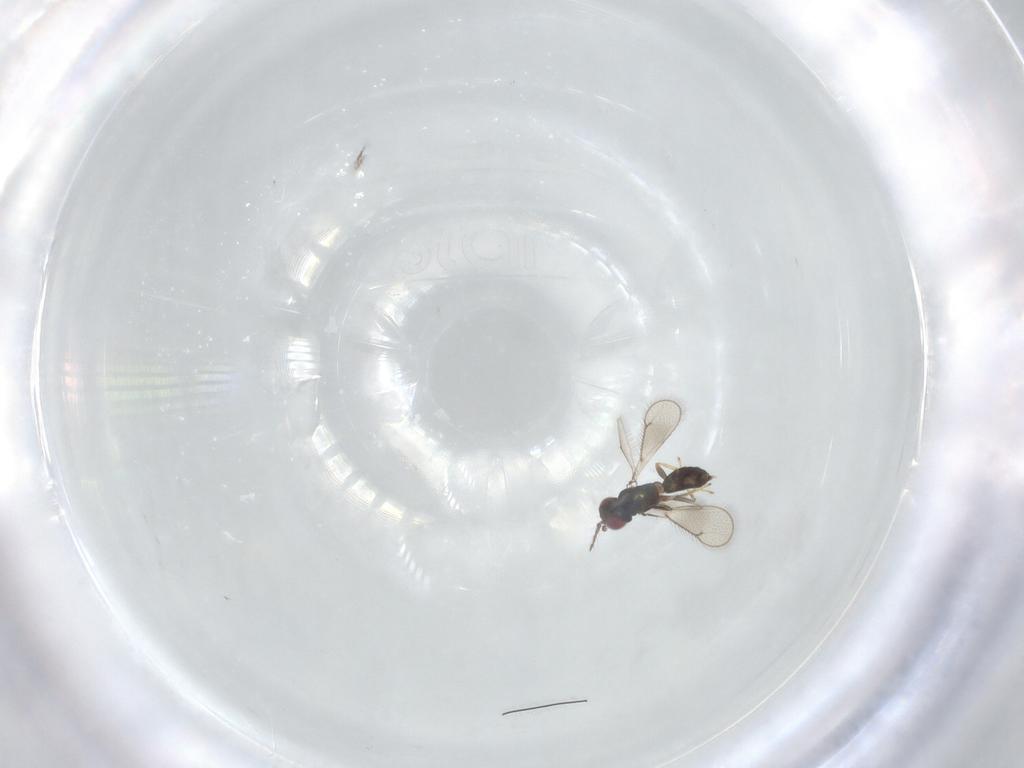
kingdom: Animalia
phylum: Arthropoda
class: Insecta
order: Hymenoptera
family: Eulophidae
